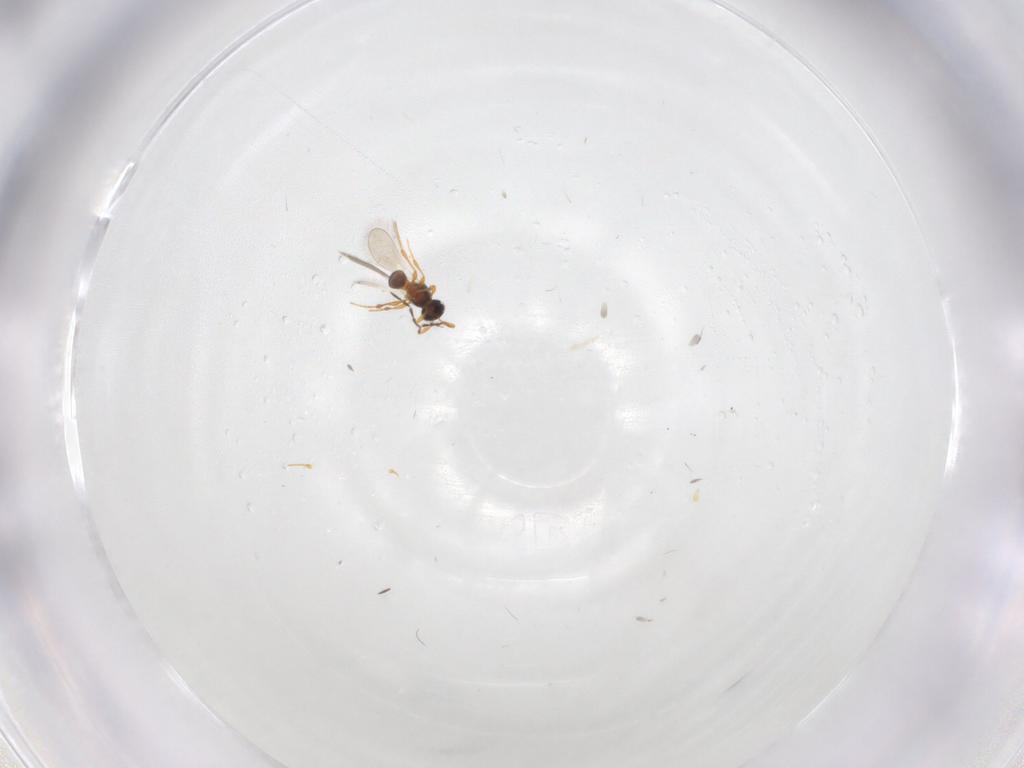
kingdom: Animalia
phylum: Arthropoda
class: Insecta
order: Hymenoptera
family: Platygastridae
